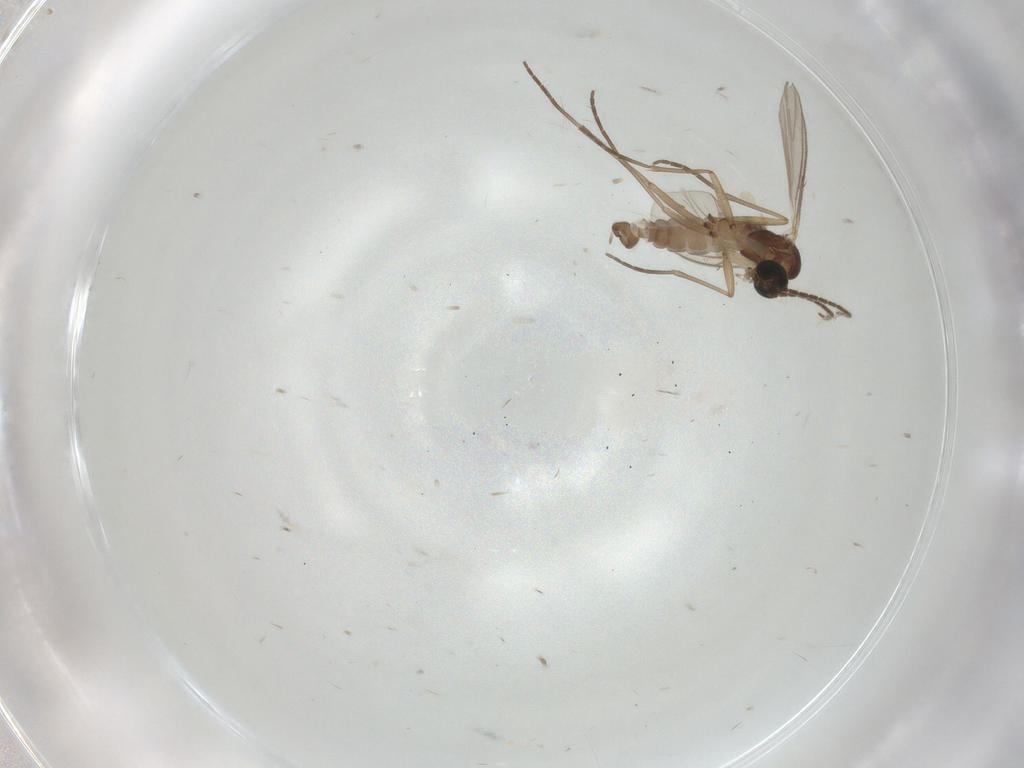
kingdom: Animalia
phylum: Arthropoda
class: Insecta
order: Diptera
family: Sciaridae
